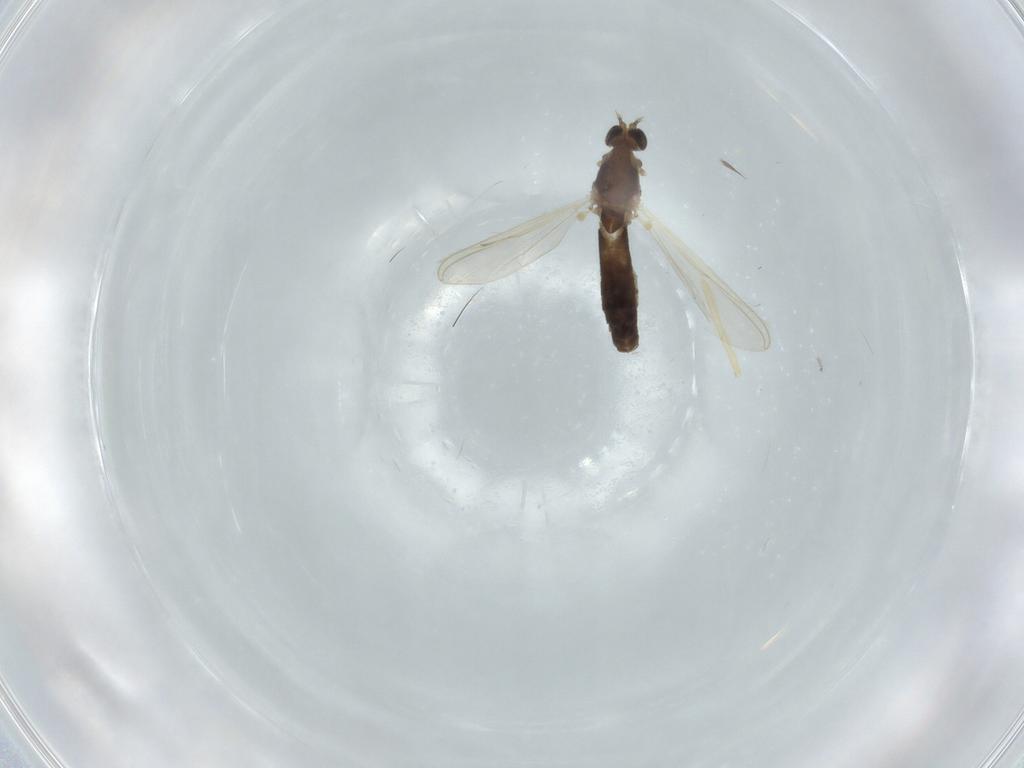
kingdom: Animalia
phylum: Arthropoda
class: Insecta
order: Diptera
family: Chironomidae
